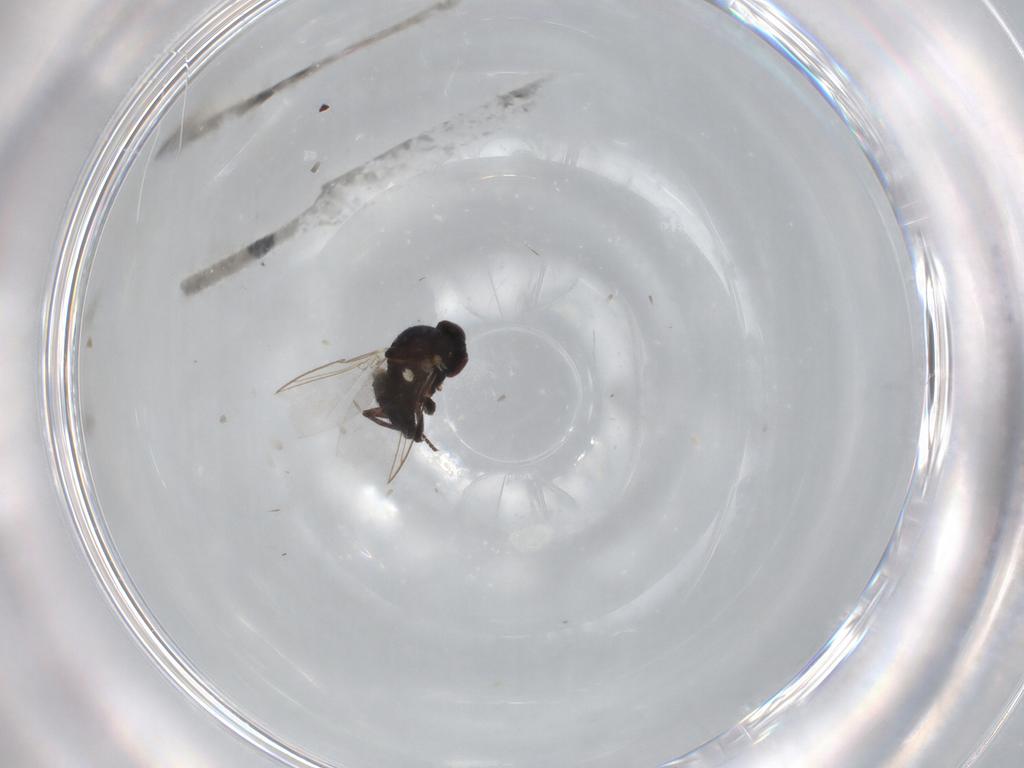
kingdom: Animalia
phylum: Arthropoda
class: Insecta
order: Diptera
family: Agromyzidae
